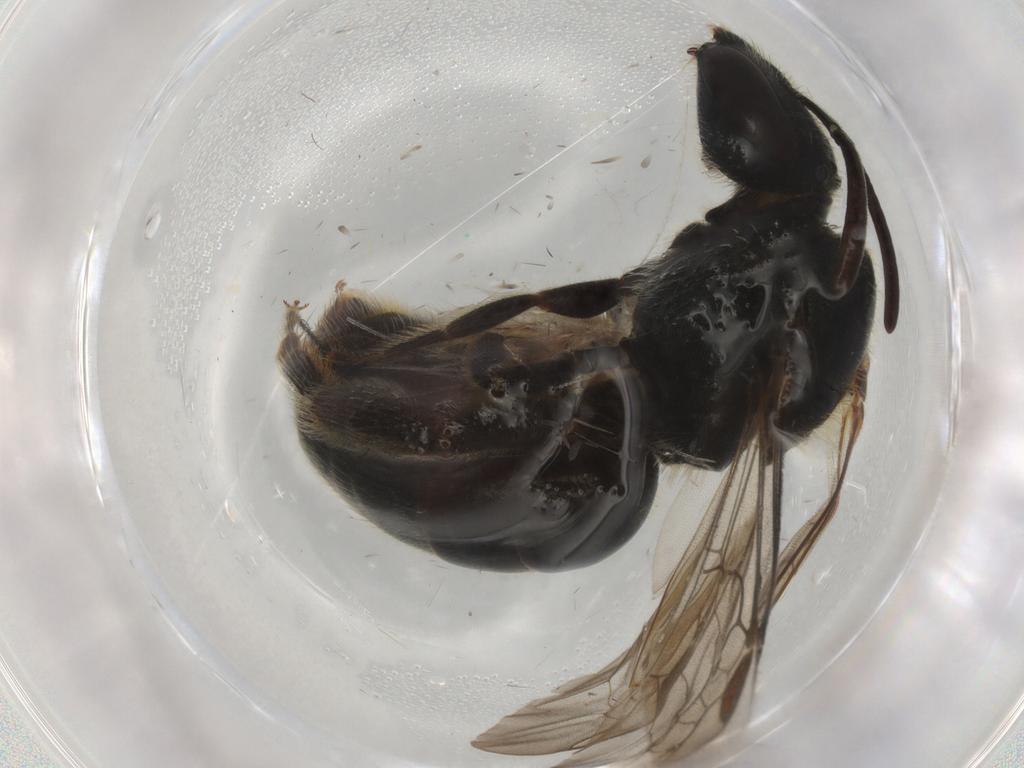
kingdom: Animalia
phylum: Arthropoda
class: Insecta
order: Hymenoptera
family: Halictidae
